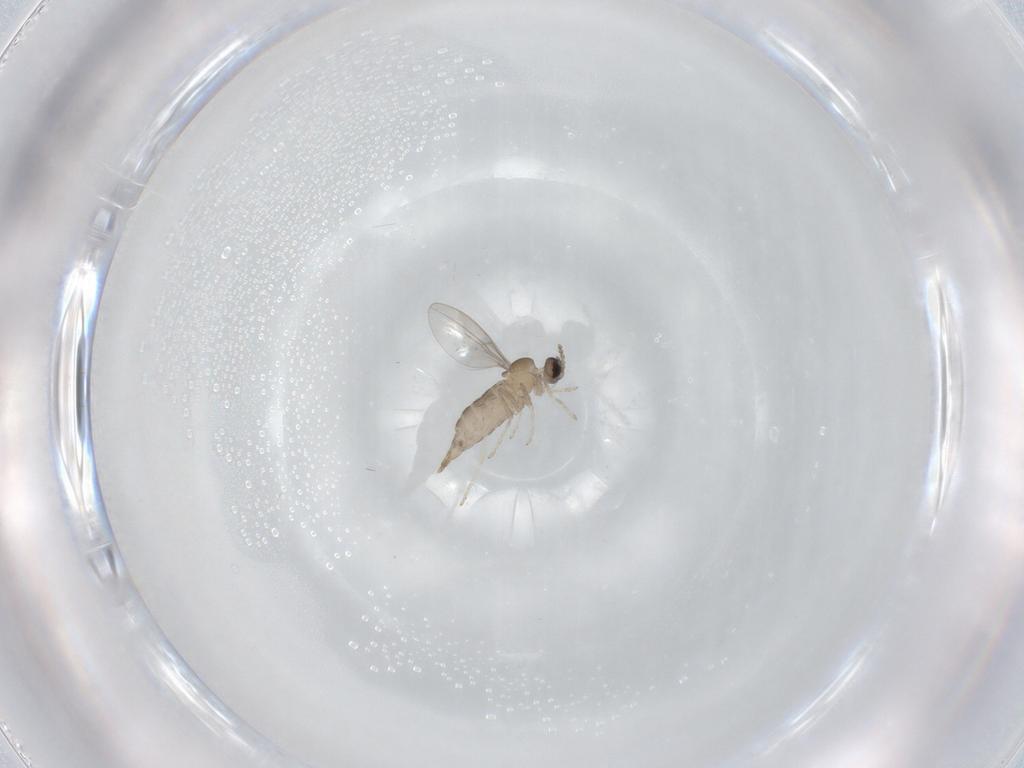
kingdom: Animalia
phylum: Arthropoda
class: Insecta
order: Diptera
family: Cecidomyiidae
